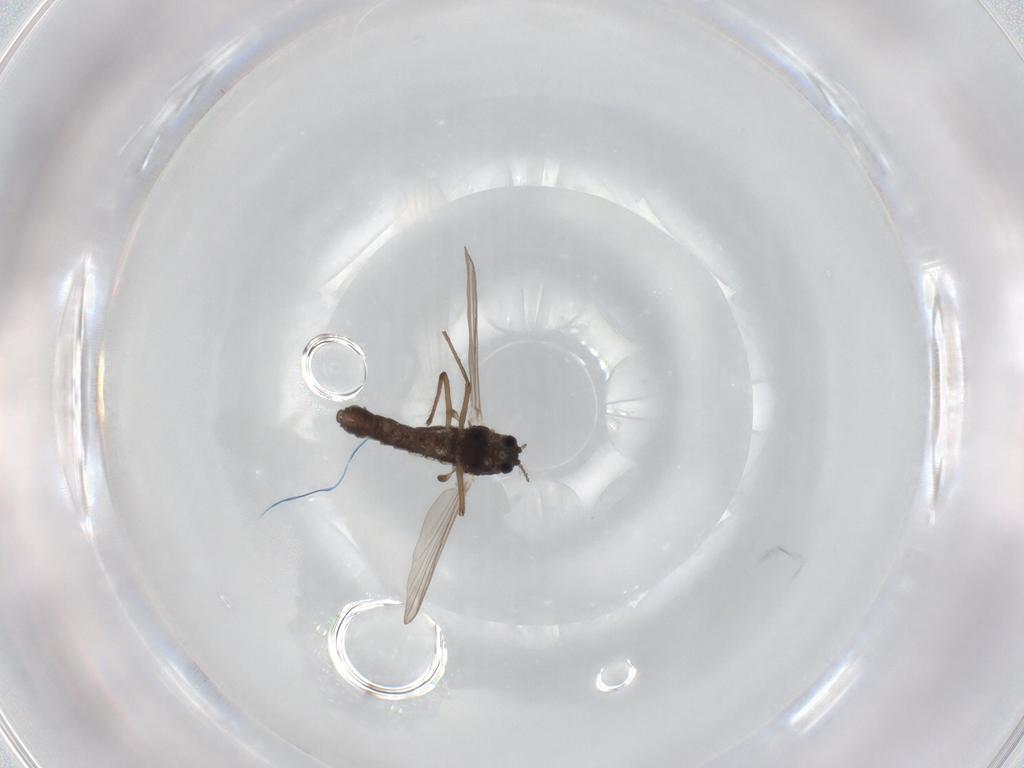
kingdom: Animalia
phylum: Arthropoda
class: Insecta
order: Diptera
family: Chironomidae
